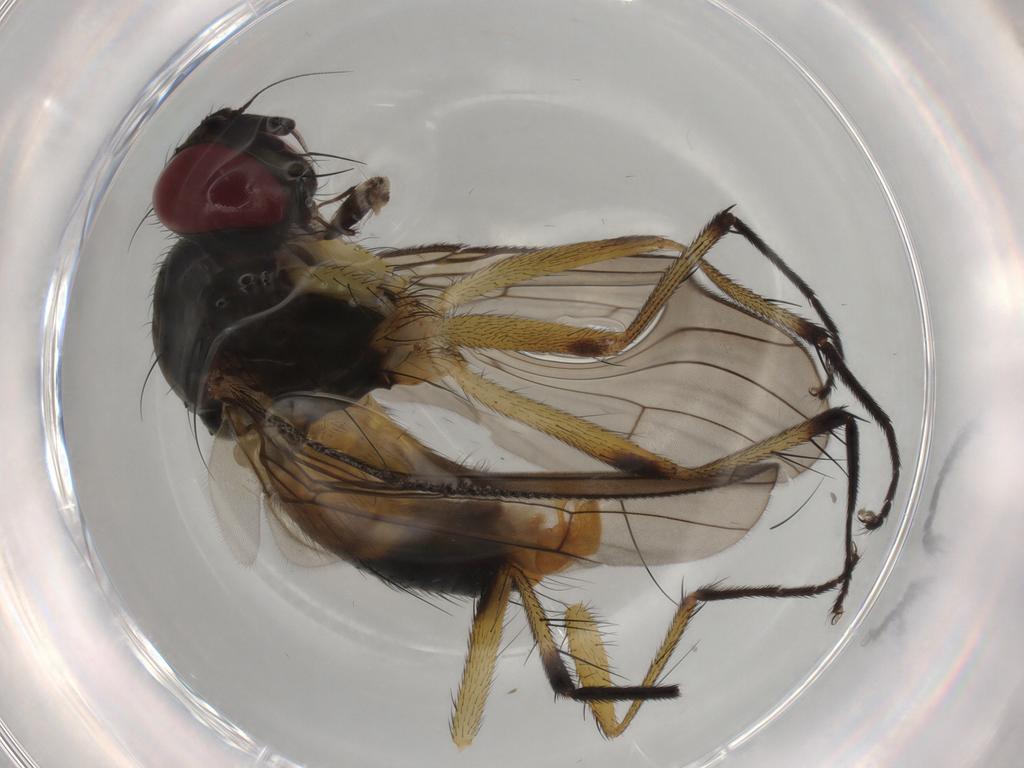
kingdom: Animalia
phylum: Arthropoda
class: Insecta
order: Diptera
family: Muscidae
